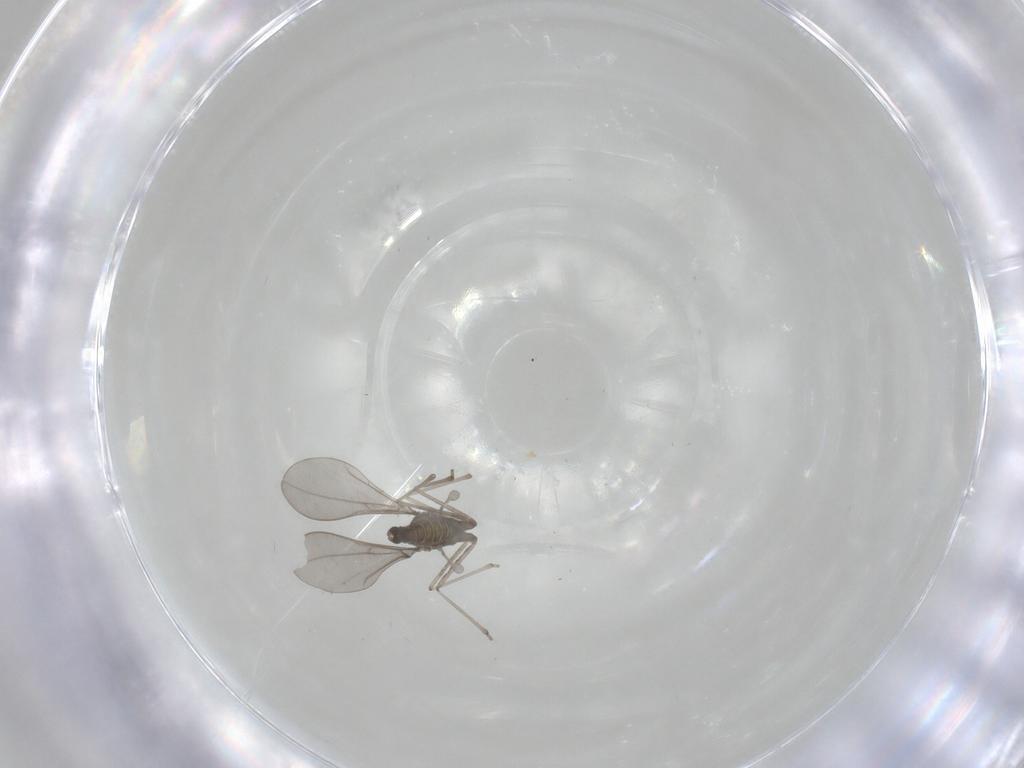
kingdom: Animalia
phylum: Arthropoda
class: Insecta
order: Diptera
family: Cecidomyiidae
